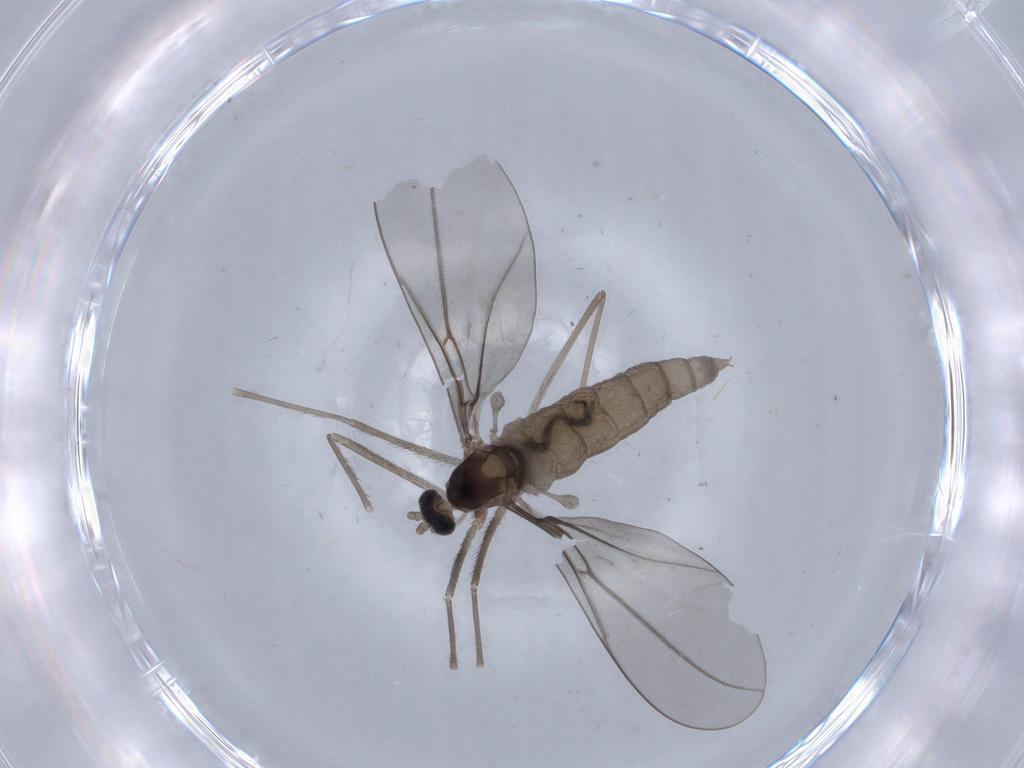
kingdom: Animalia
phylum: Arthropoda
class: Insecta
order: Diptera
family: Cecidomyiidae
